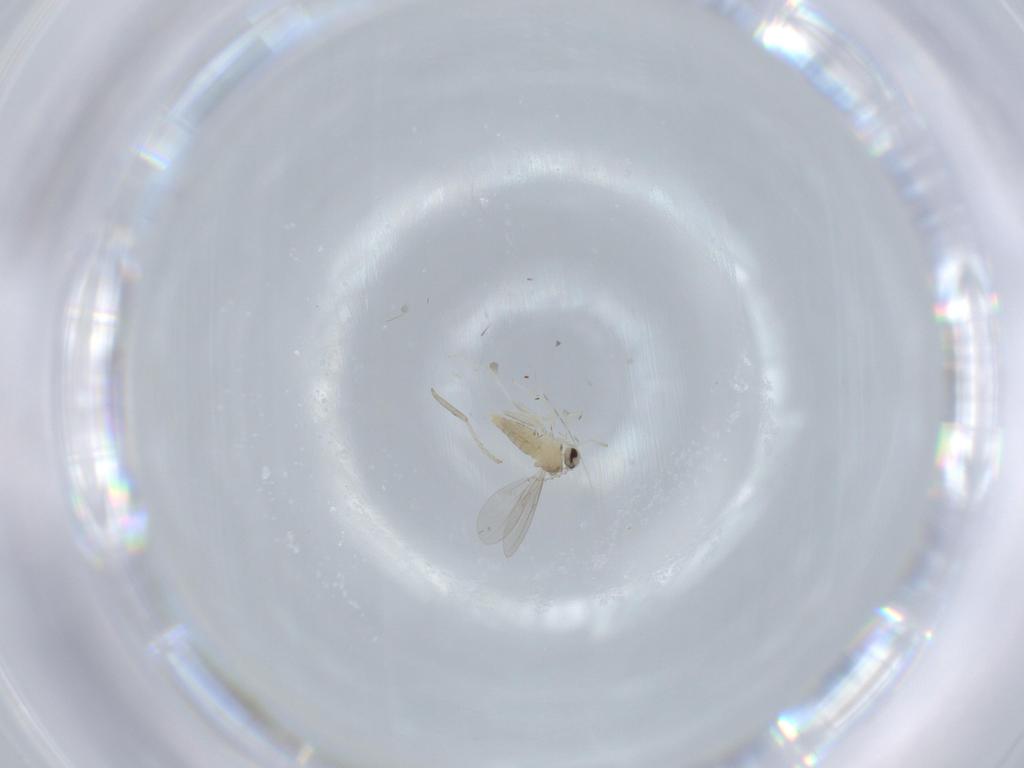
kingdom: Animalia
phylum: Arthropoda
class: Insecta
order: Diptera
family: Cecidomyiidae
